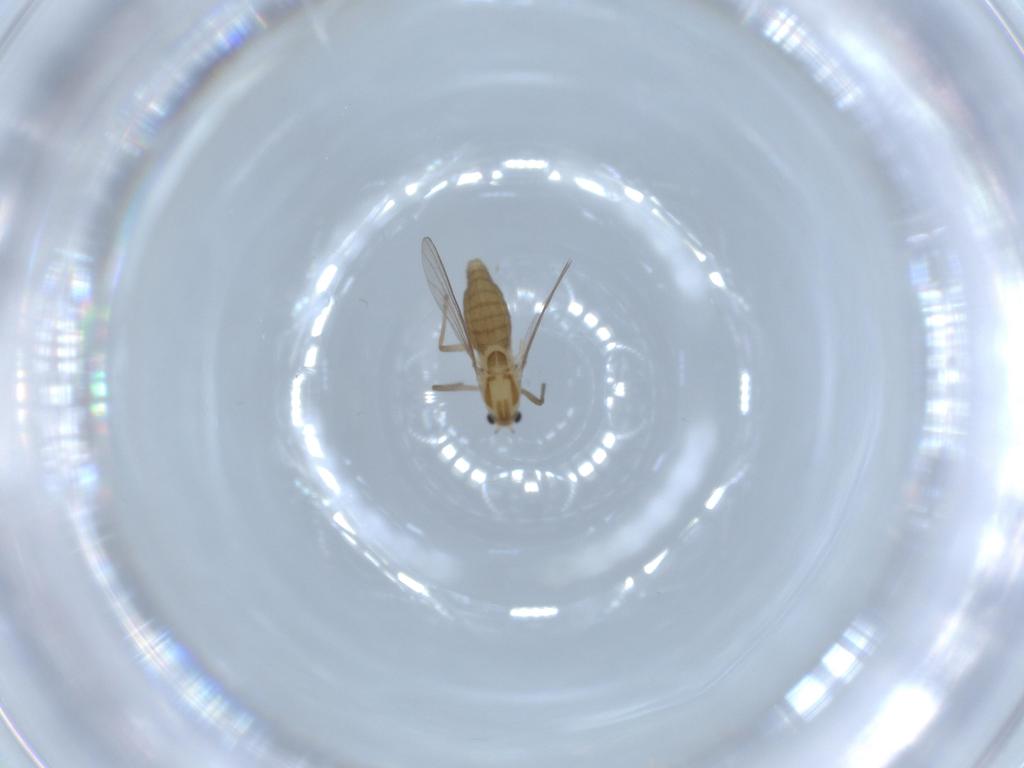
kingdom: Animalia
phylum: Arthropoda
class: Insecta
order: Diptera
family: Chironomidae
